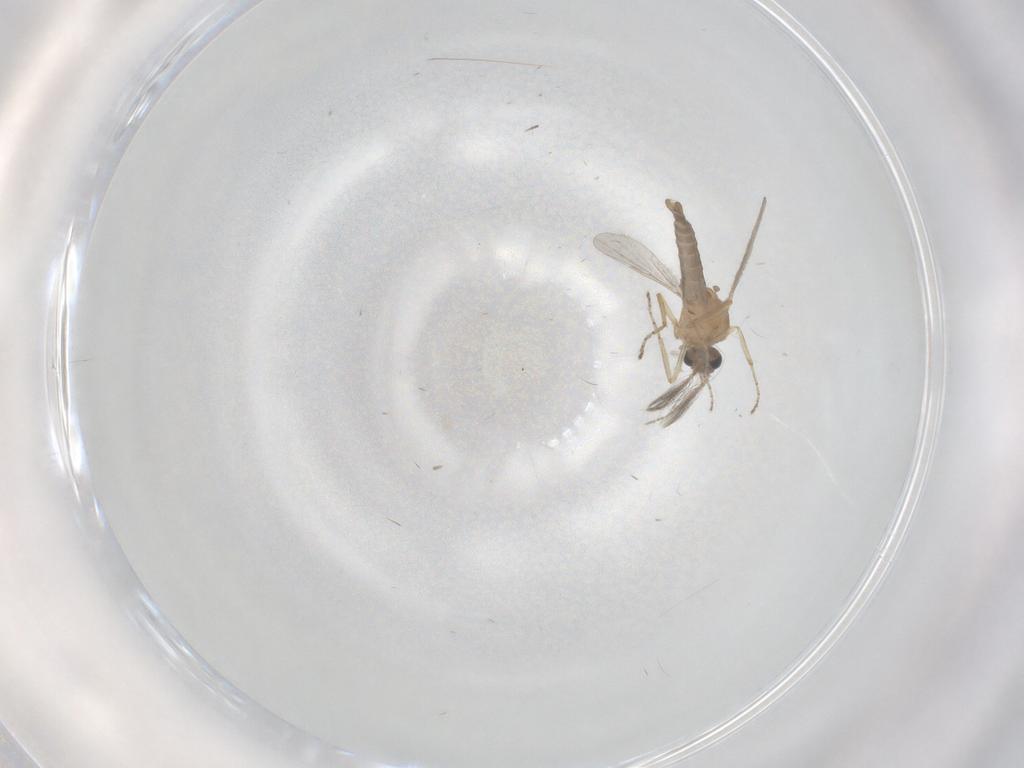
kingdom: Animalia
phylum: Arthropoda
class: Insecta
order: Diptera
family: Ceratopogonidae
